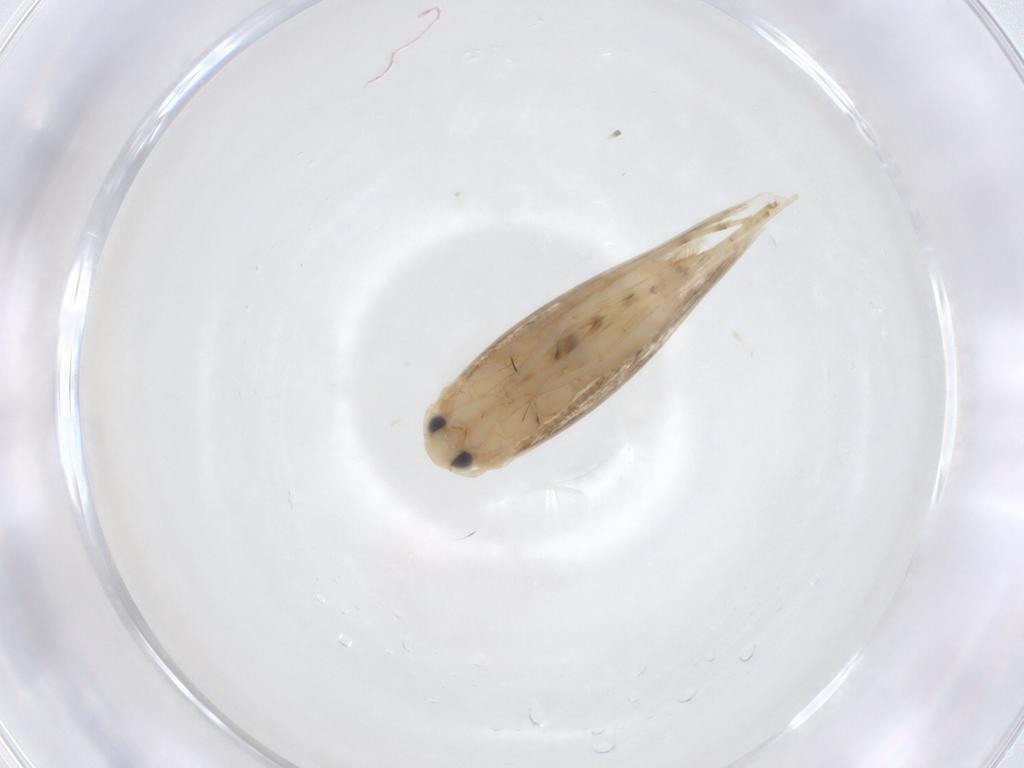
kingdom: Animalia
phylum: Arthropoda
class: Insecta
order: Lepidoptera
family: Gracillariidae
